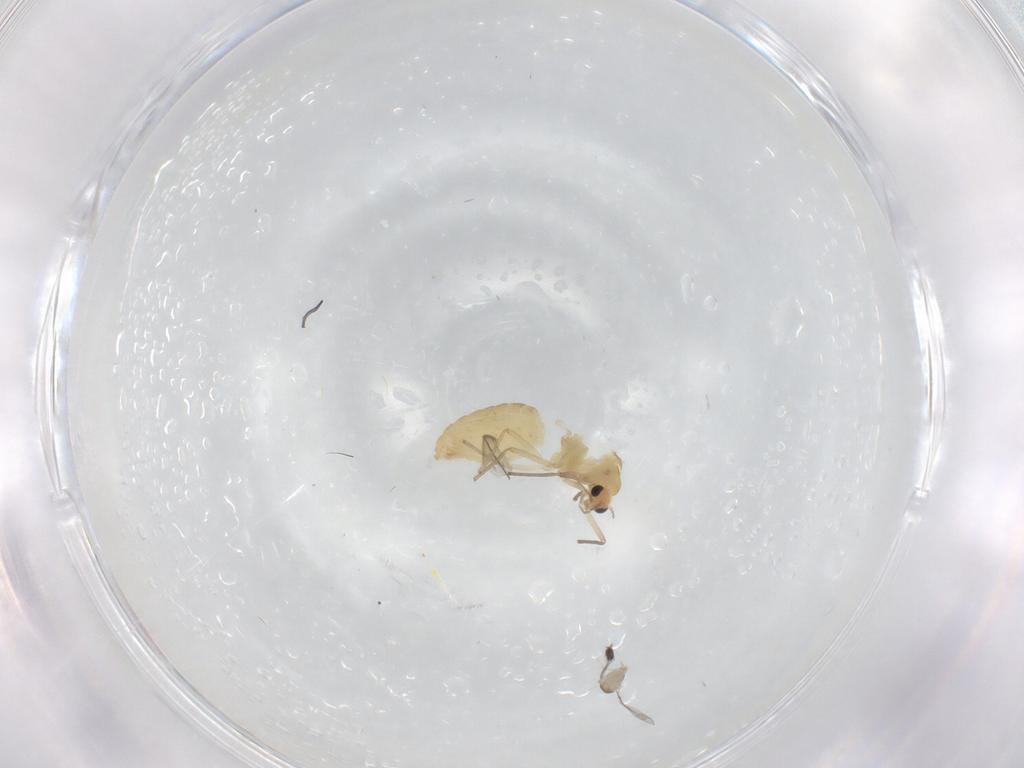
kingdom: Animalia
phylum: Arthropoda
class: Insecta
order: Diptera
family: Chironomidae
